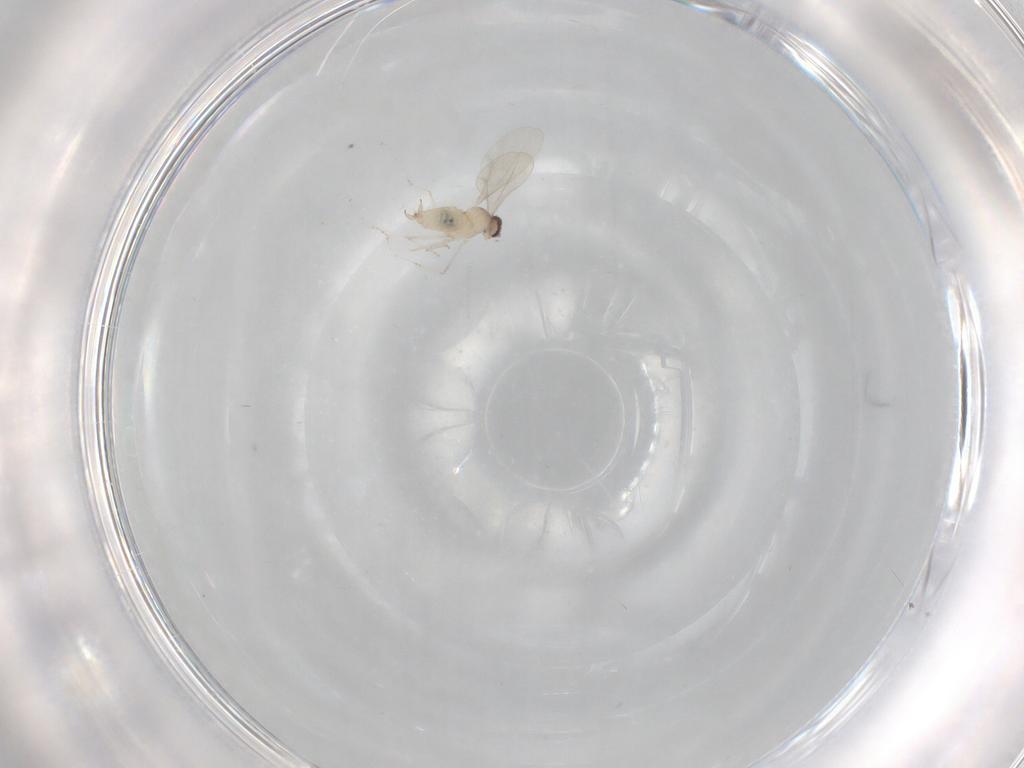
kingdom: Animalia
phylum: Arthropoda
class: Insecta
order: Diptera
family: Cecidomyiidae
